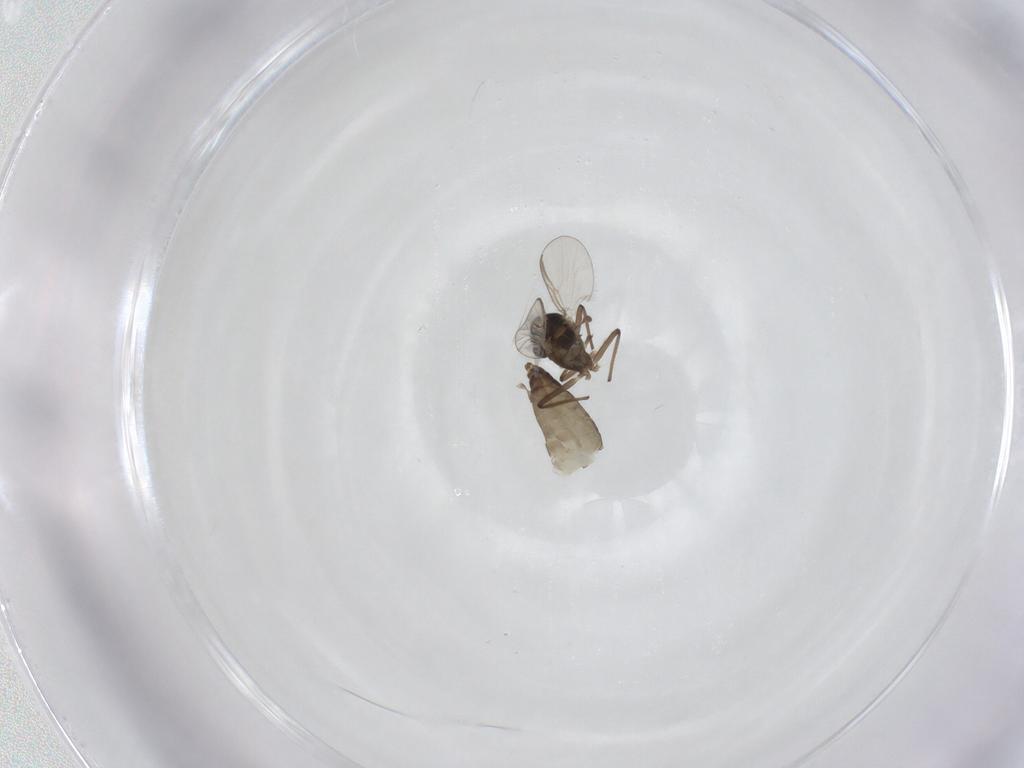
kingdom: Animalia
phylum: Arthropoda
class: Insecta
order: Diptera
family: Chironomidae
